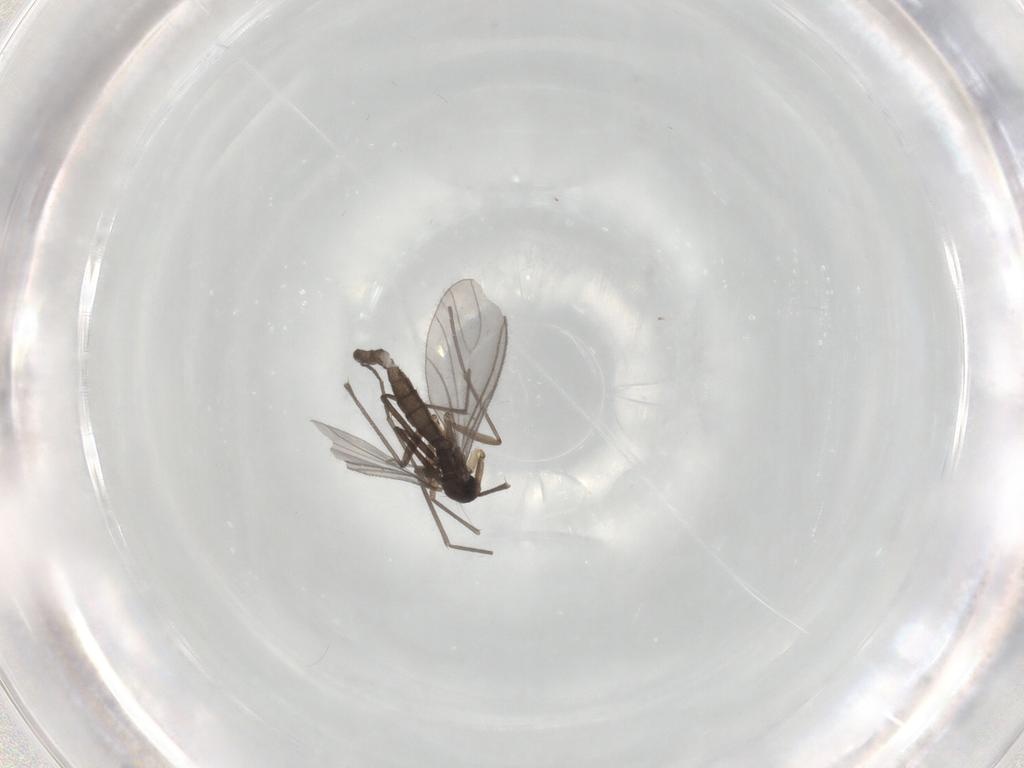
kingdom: Animalia
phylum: Arthropoda
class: Insecta
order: Diptera
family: Sciaridae
